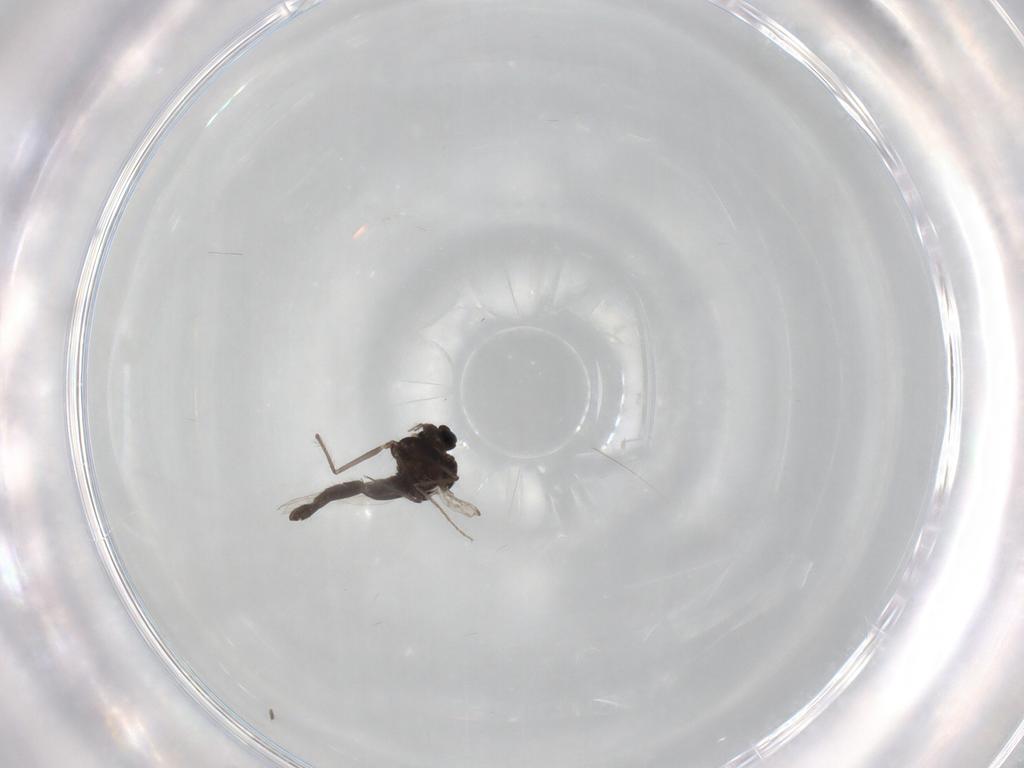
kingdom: Animalia
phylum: Arthropoda
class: Insecta
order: Diptera
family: Chironomidae
